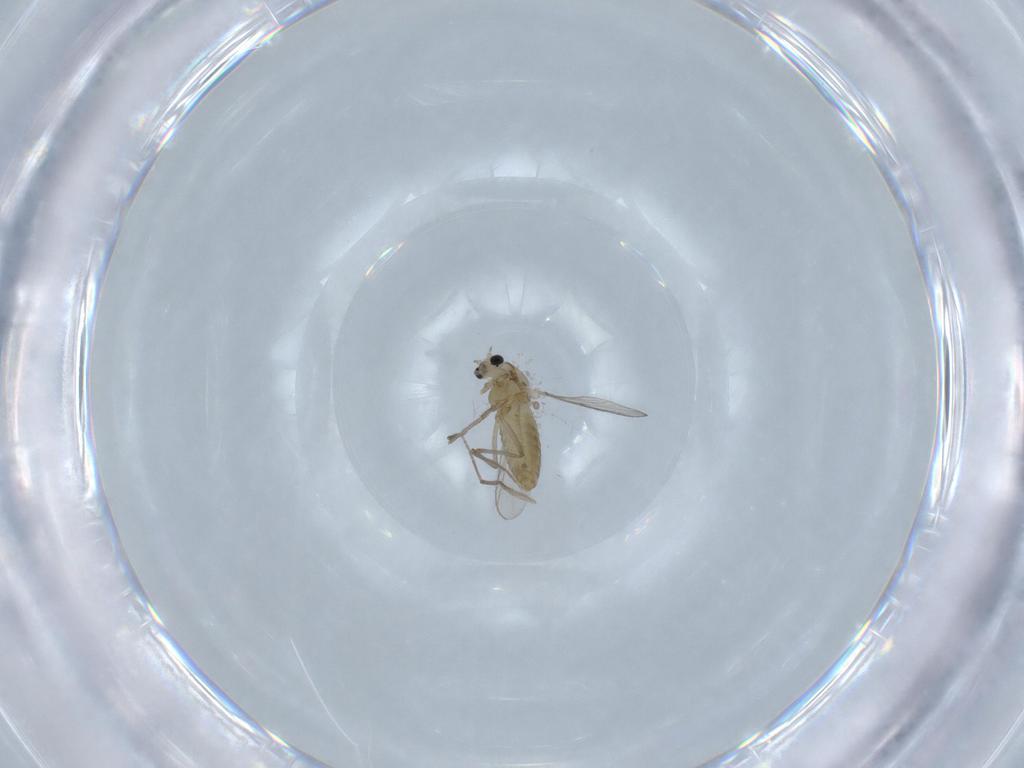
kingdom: Animalia
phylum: Arthropoda
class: Insecta
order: Diptera
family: Chironomidae
